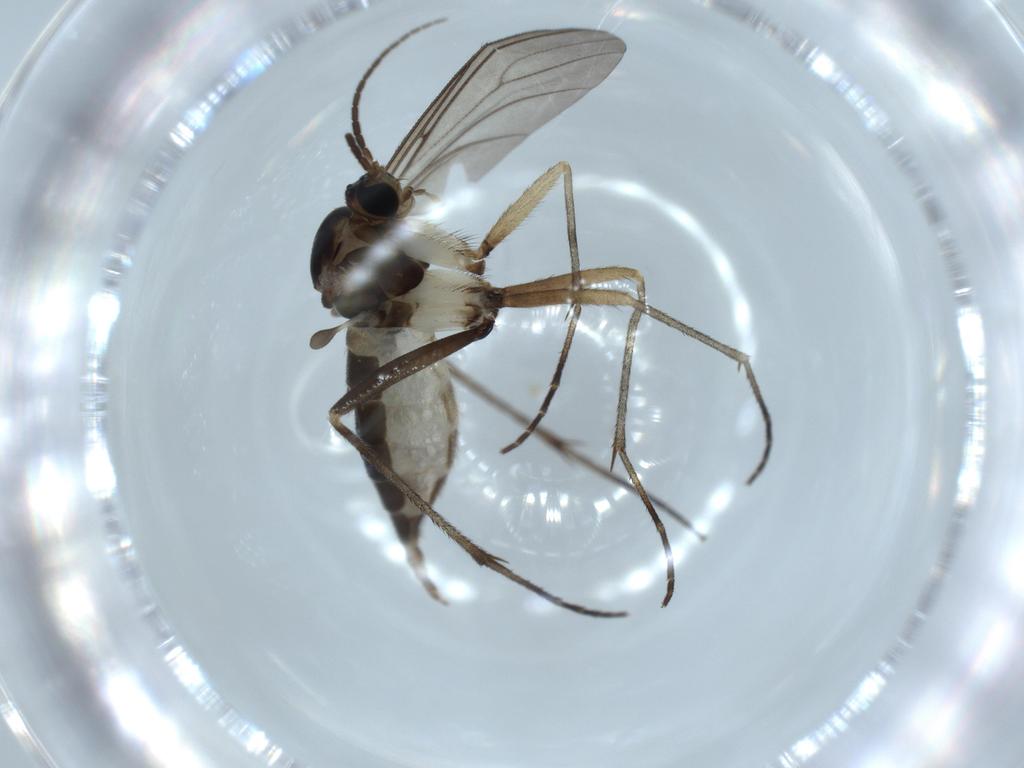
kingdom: Animalia
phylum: Arthropoda
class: Insecta
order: Diptera
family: Sciaridae
